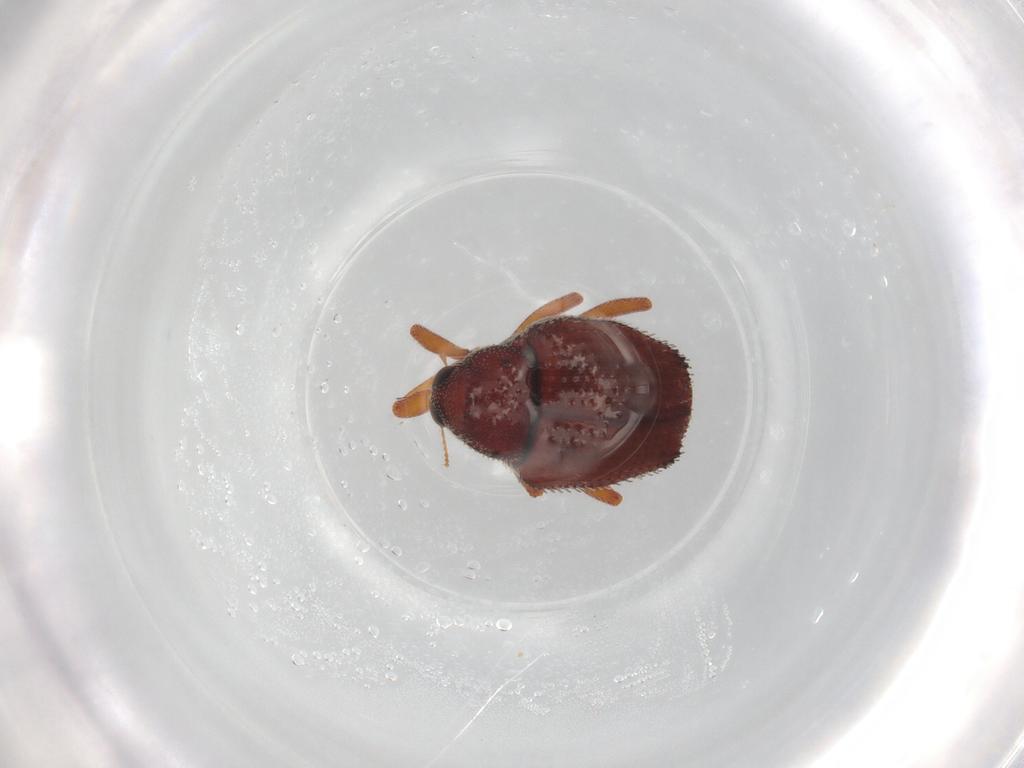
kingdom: Animalia
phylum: Arthropoda
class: Insecta
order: Coleoptera
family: Curculionidae
